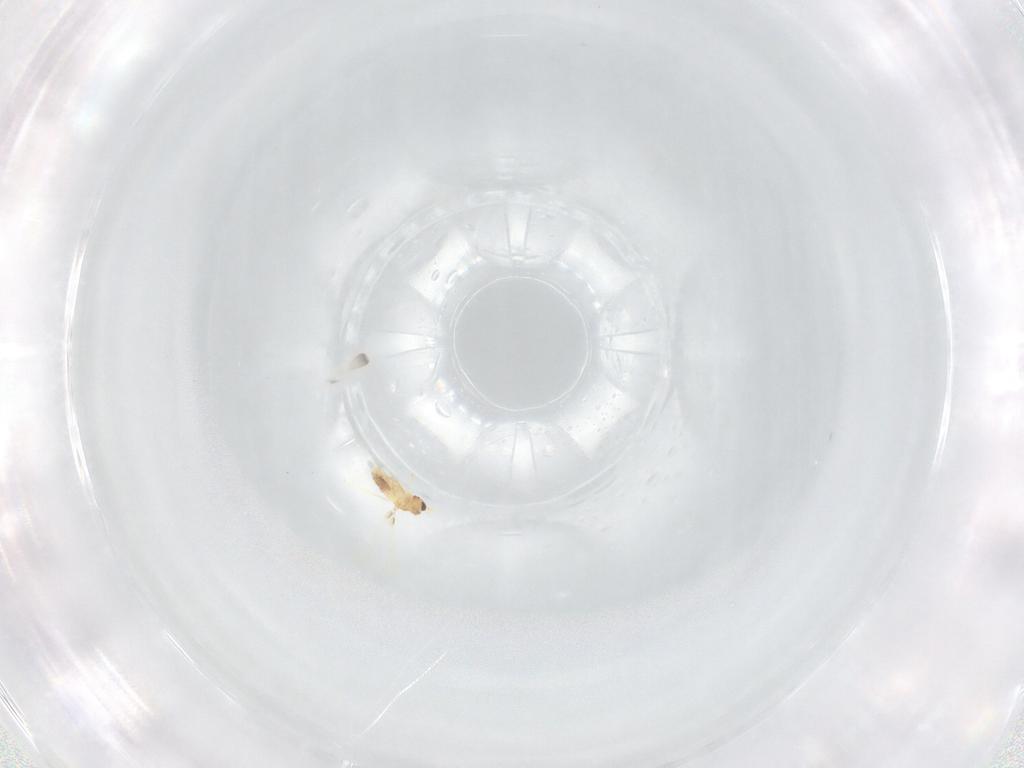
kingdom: Animalia
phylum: Arthropoda
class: Insecta
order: Hymenoptera
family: Mymaridae
